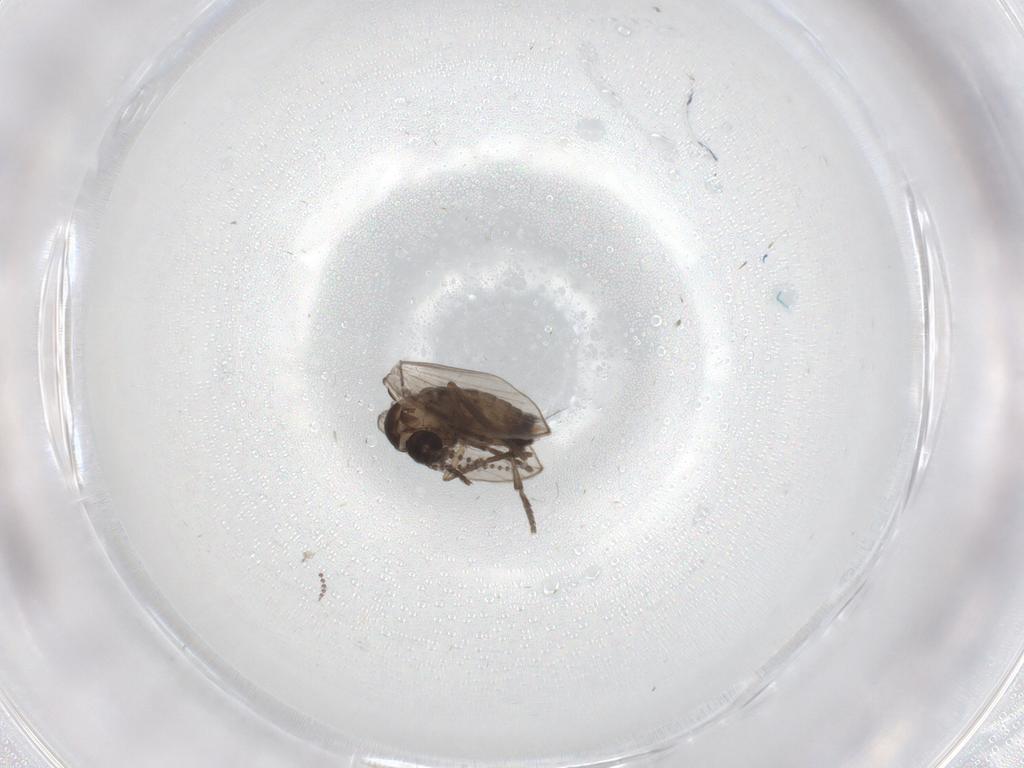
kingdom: Animalia
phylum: Arthropoda
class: Insecta
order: Diptera
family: Psychodidae
